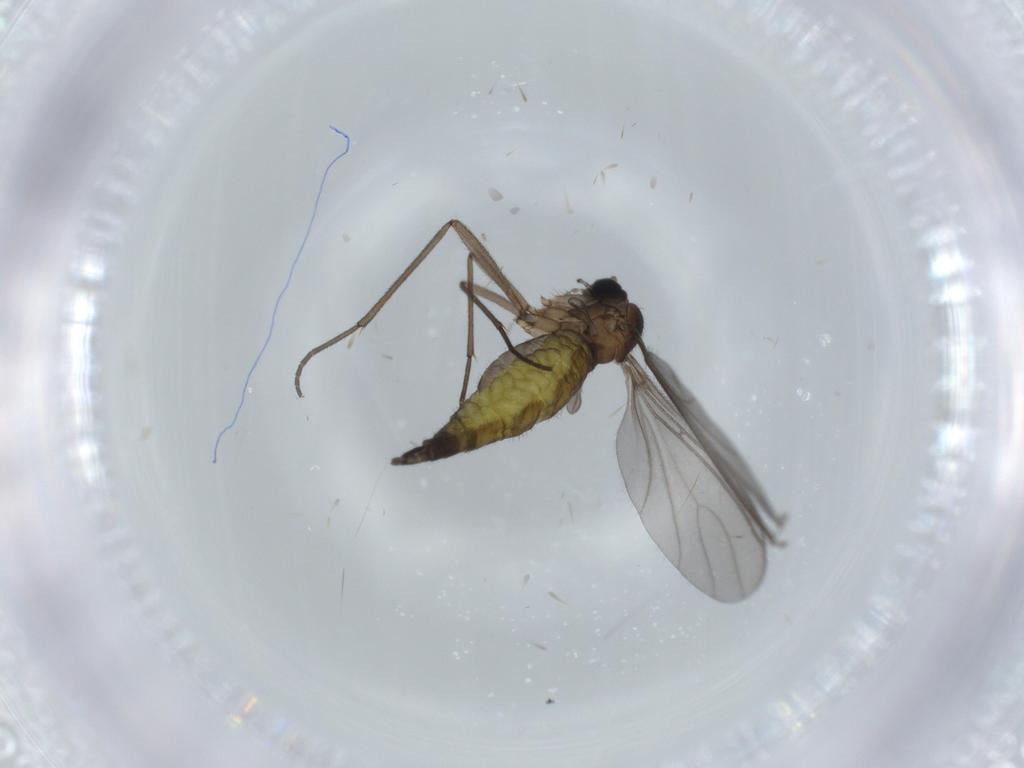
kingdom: Animalia
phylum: Arthropoda
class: Insecta
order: Diptera
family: Sciaridae
